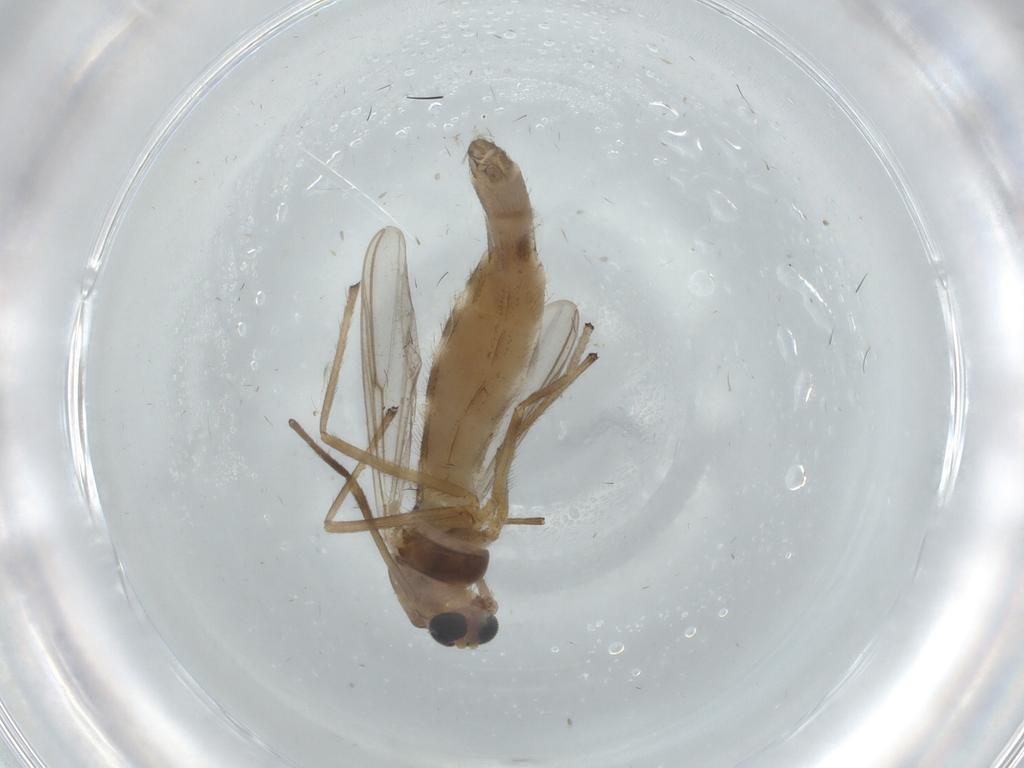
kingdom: Animalia
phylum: Arthropoda
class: Insecta
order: Diptera
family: Chironomidae
